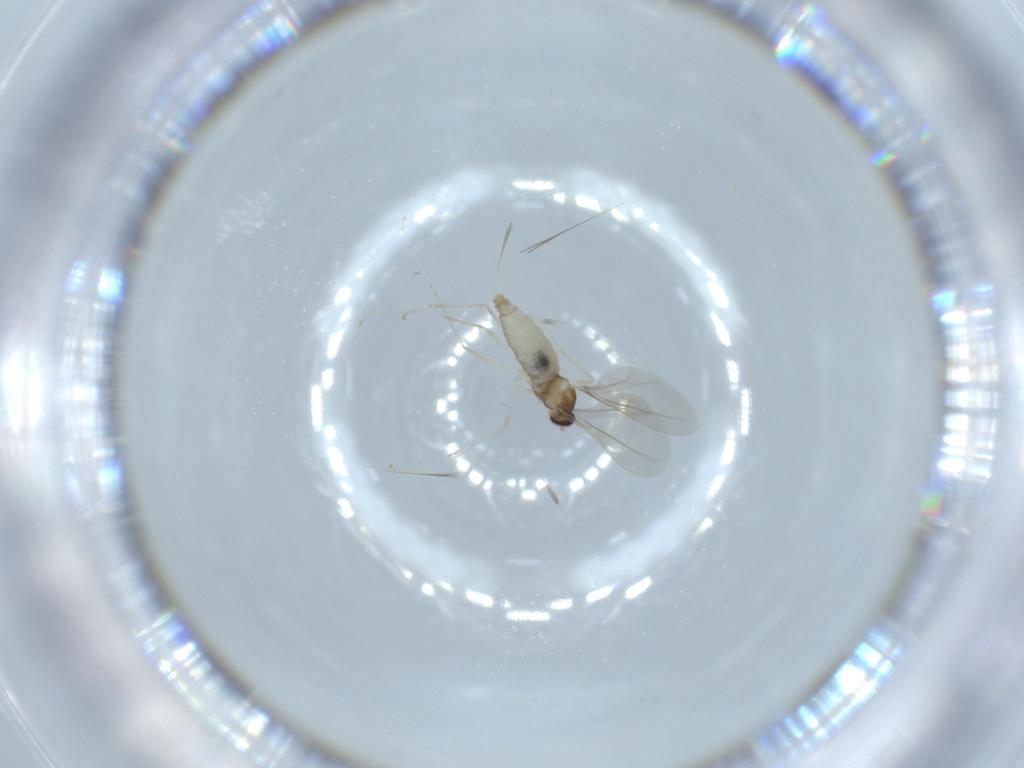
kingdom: Animalia
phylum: Arthropoda
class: Insecta
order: Diptera
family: Cecidomyiidae
